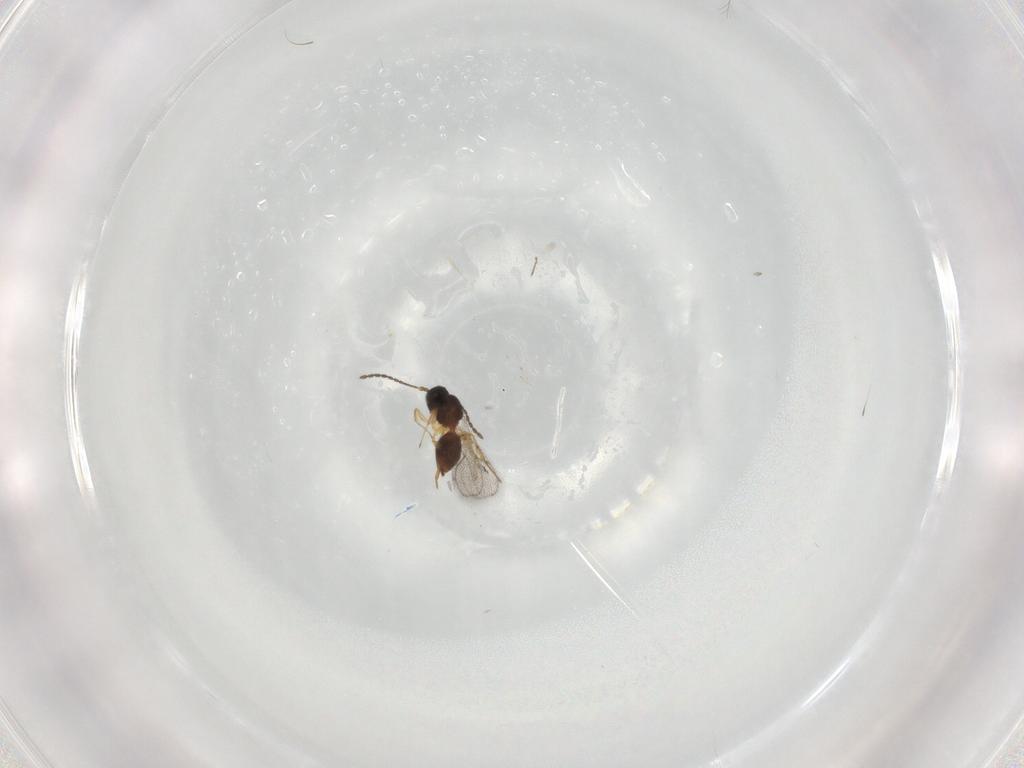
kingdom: Animalia
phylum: Arthropoda
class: Insecta
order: Hymenoptera
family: Figitidae
